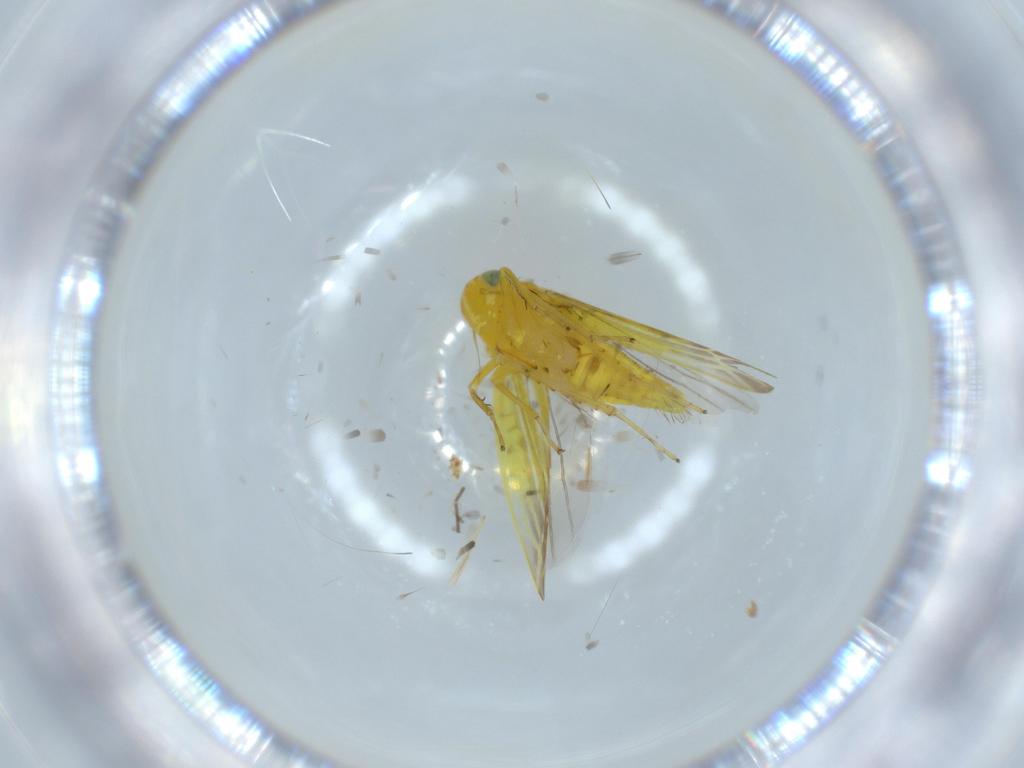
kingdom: Animalia
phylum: Arthropoda
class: Insecta
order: Hemiptera
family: Cicadellidae
